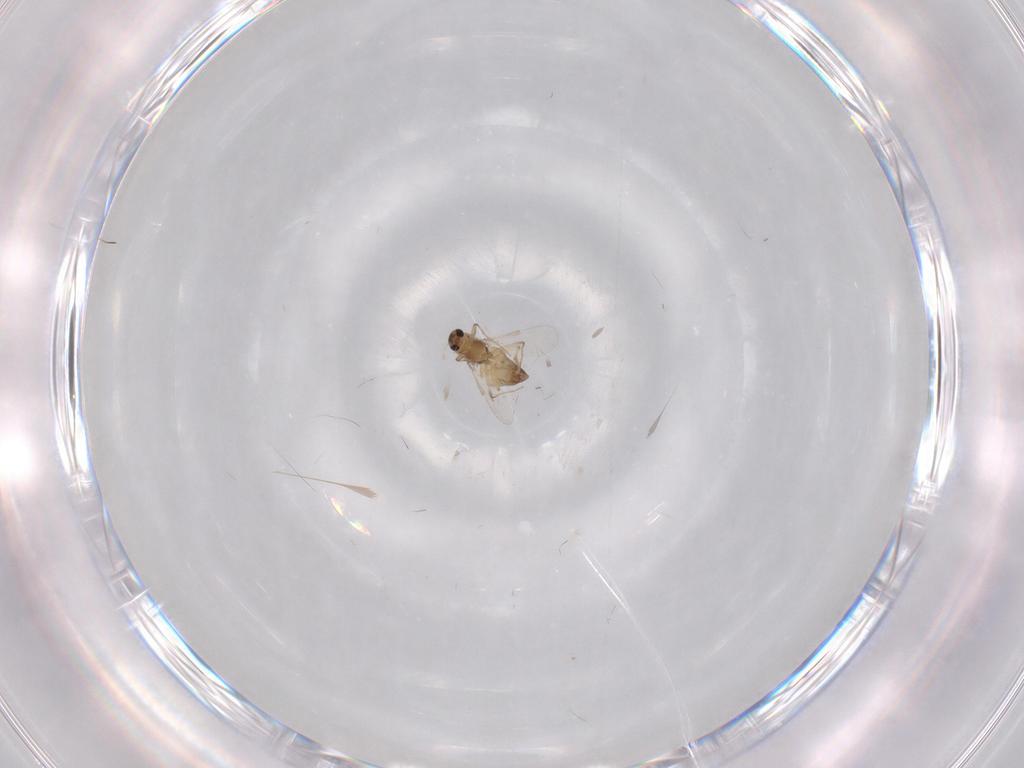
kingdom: Animalia
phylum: Arthropoda
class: Insecta
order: Diptera
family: Chironomidae
